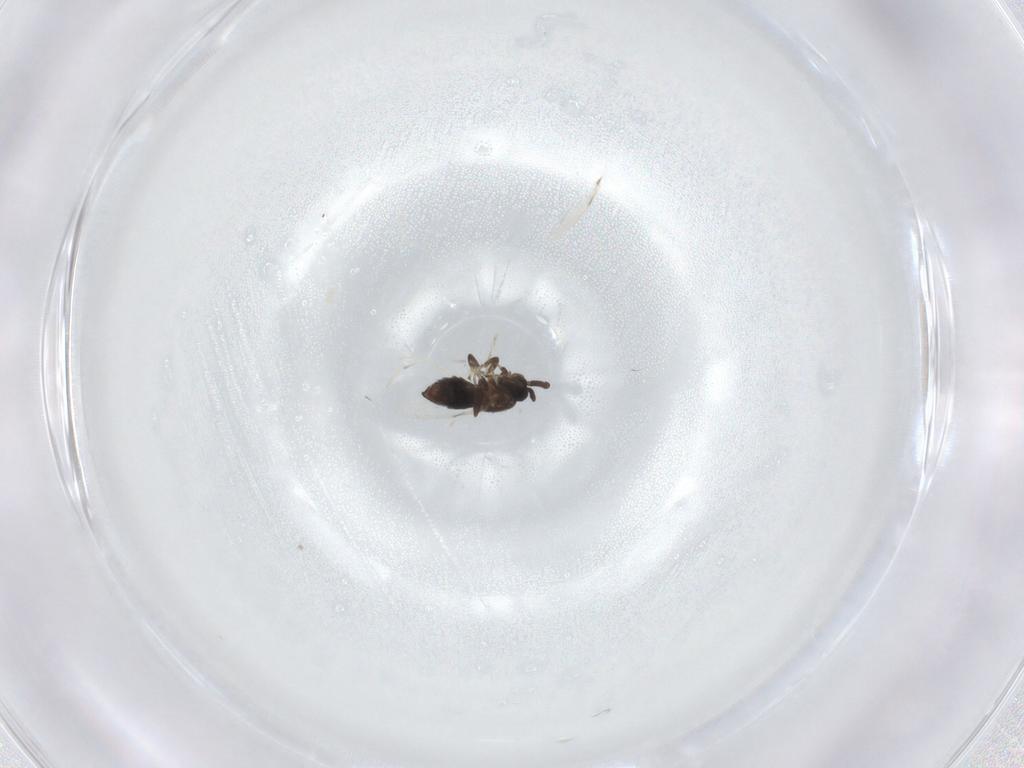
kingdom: Animalia
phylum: Arthropoda
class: Insecta
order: Diptera
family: Scatopsidae
